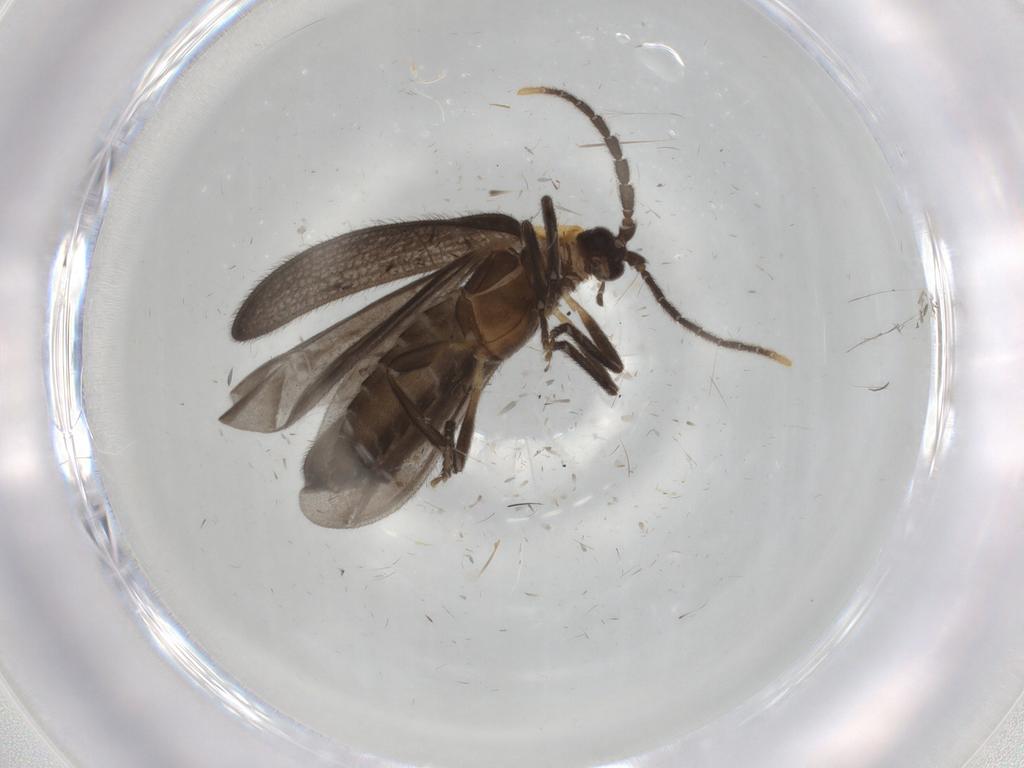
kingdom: Animalia
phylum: Arthropoda
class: Insecta
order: Coleoptera
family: Lycidae
